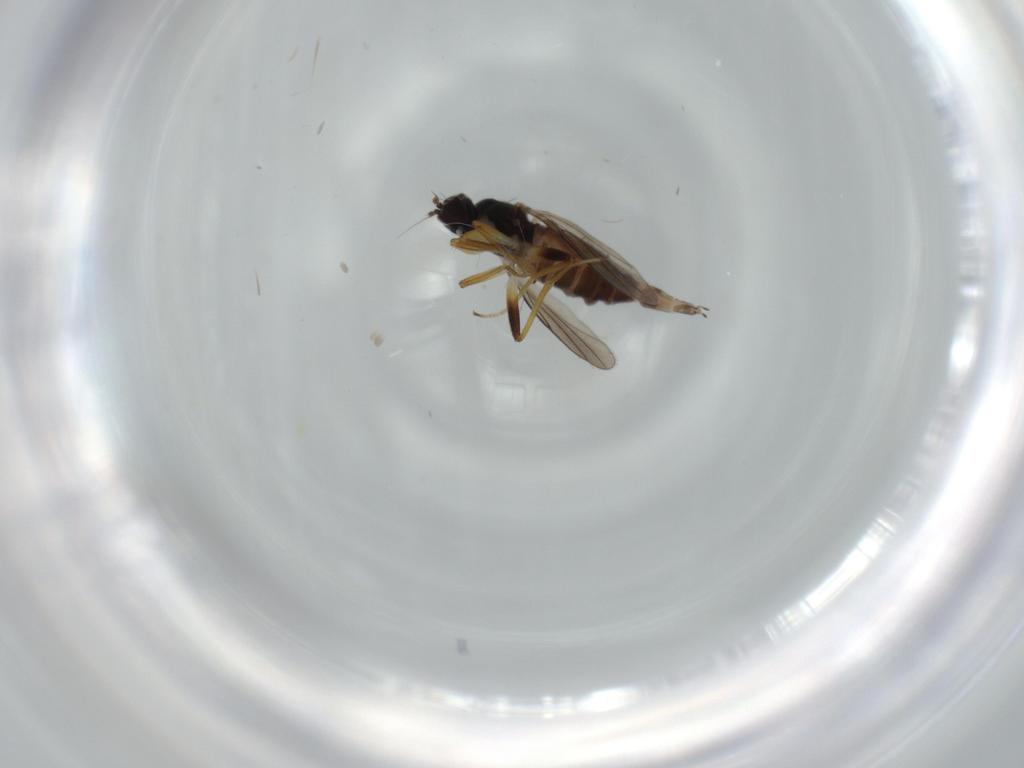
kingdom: Animalia
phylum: Arthropoda
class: Insecta
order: Diptera
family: Hybotidae
